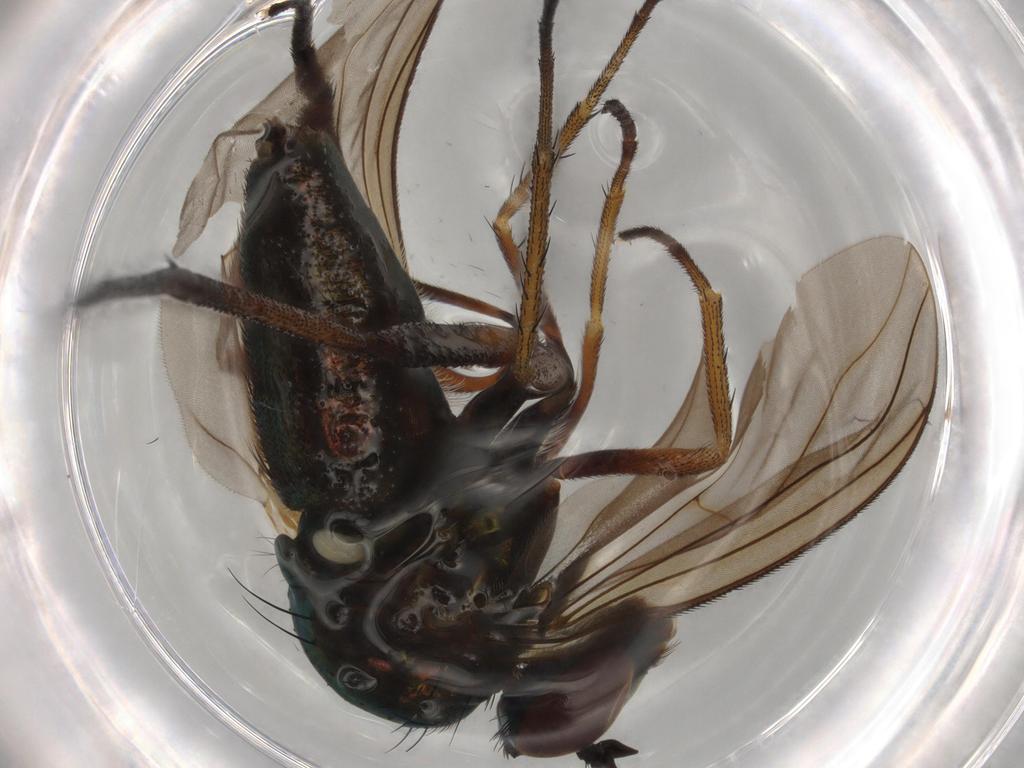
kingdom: Animalia
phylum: Arthropoda
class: Insecta
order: Diptera
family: Dolichopodidae
